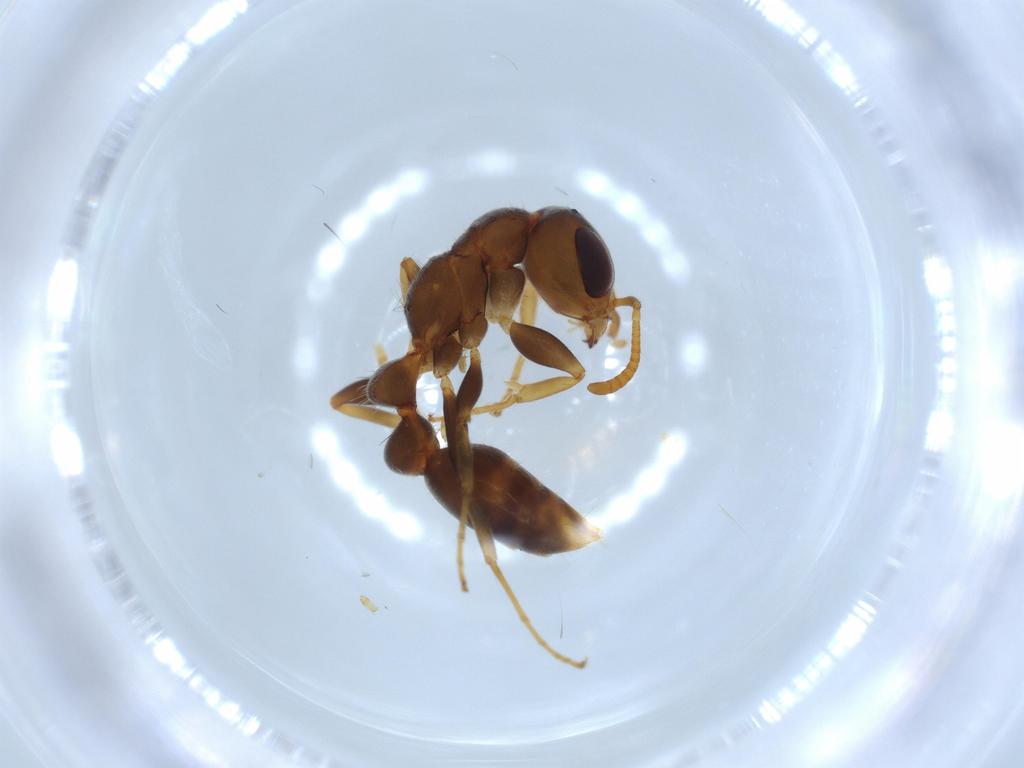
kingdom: Animalia
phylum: Arthropoda
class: Insecta
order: Hymenoptera
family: Formicidae
